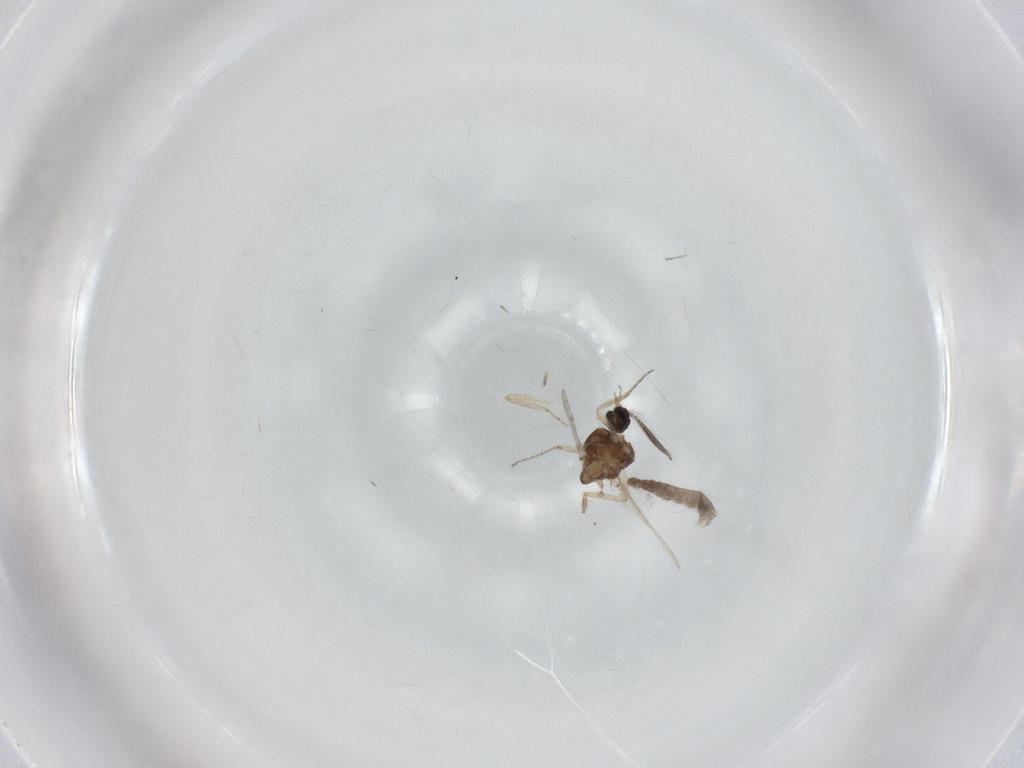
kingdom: Animalia
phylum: Arthropoda
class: Insecta
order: Diptera
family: Ceratopogonidae
